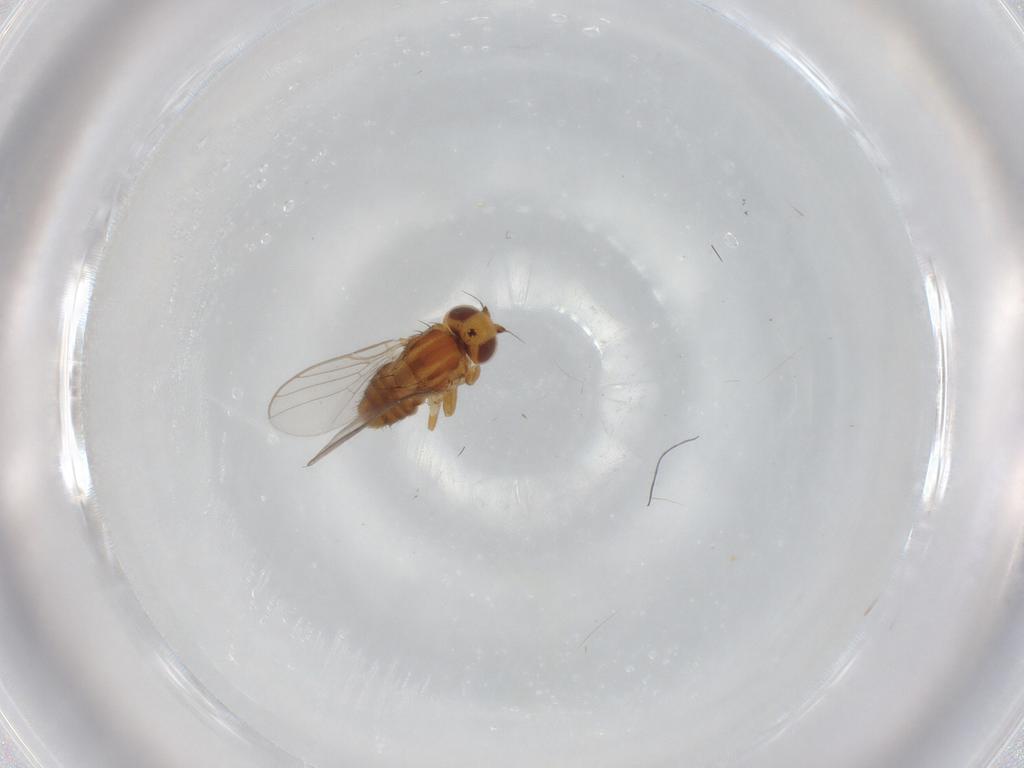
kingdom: Animalia
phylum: Arthropoda
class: Insecta
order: Diptera
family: Chloropidae
